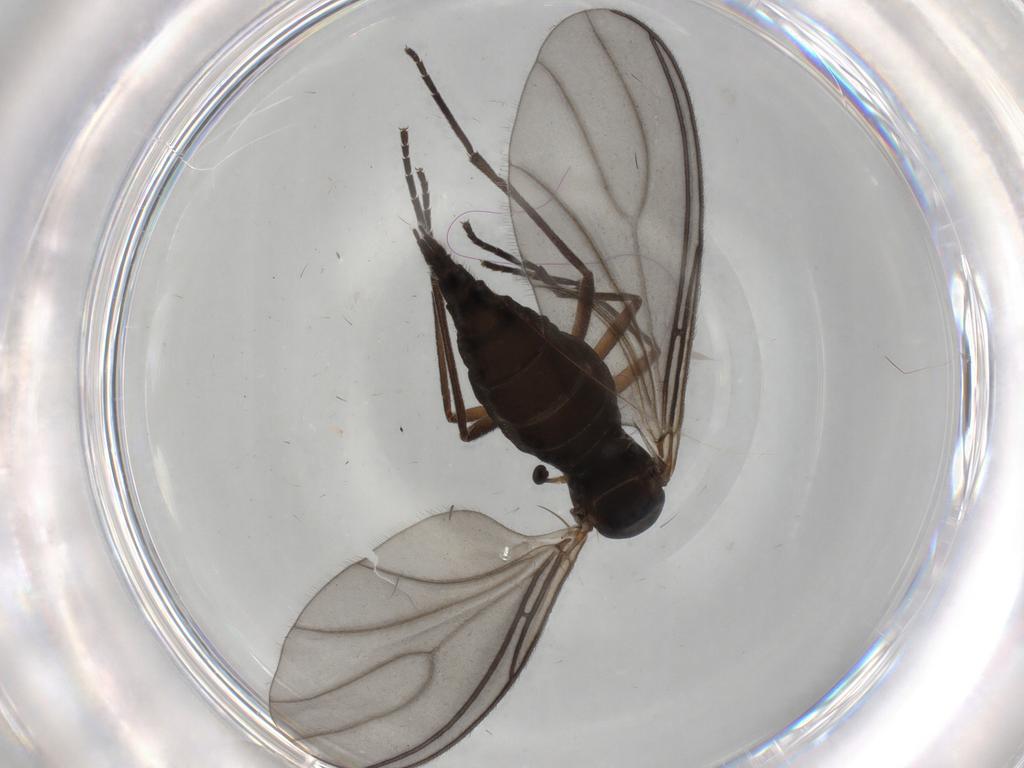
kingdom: Animalia
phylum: Arthropoda
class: Insecta
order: Diptera
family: Sciaridae
